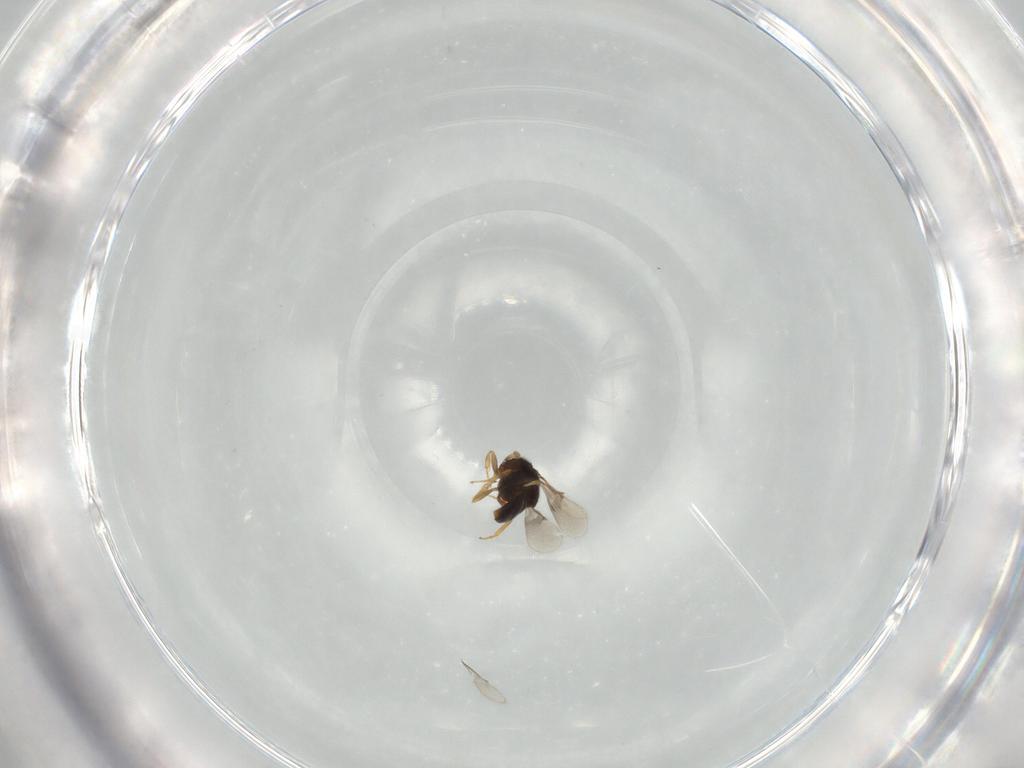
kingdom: Animalia
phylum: Arthropoda
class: Insecta
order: Hymenoptera
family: Scelionidae
